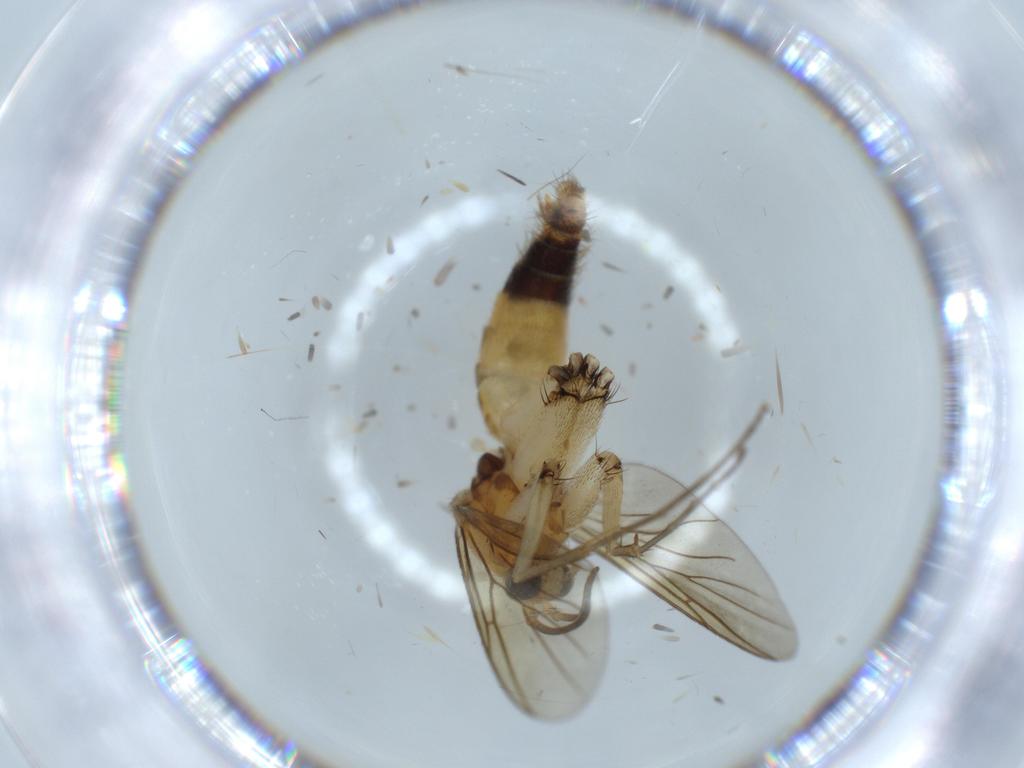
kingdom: Animalia
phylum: Arthropoda
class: Insecta
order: Diptera
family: Mycetophilidae
